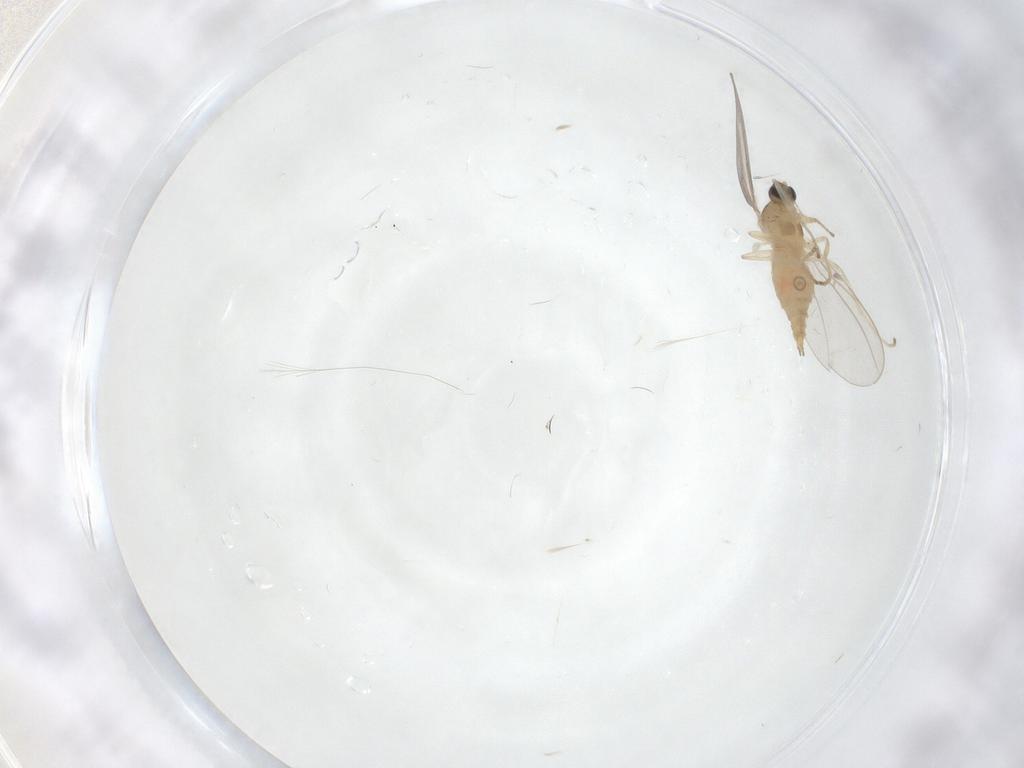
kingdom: Animalia
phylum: Arthropoda
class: Insecta
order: Diptera
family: Cecidomyiidae
